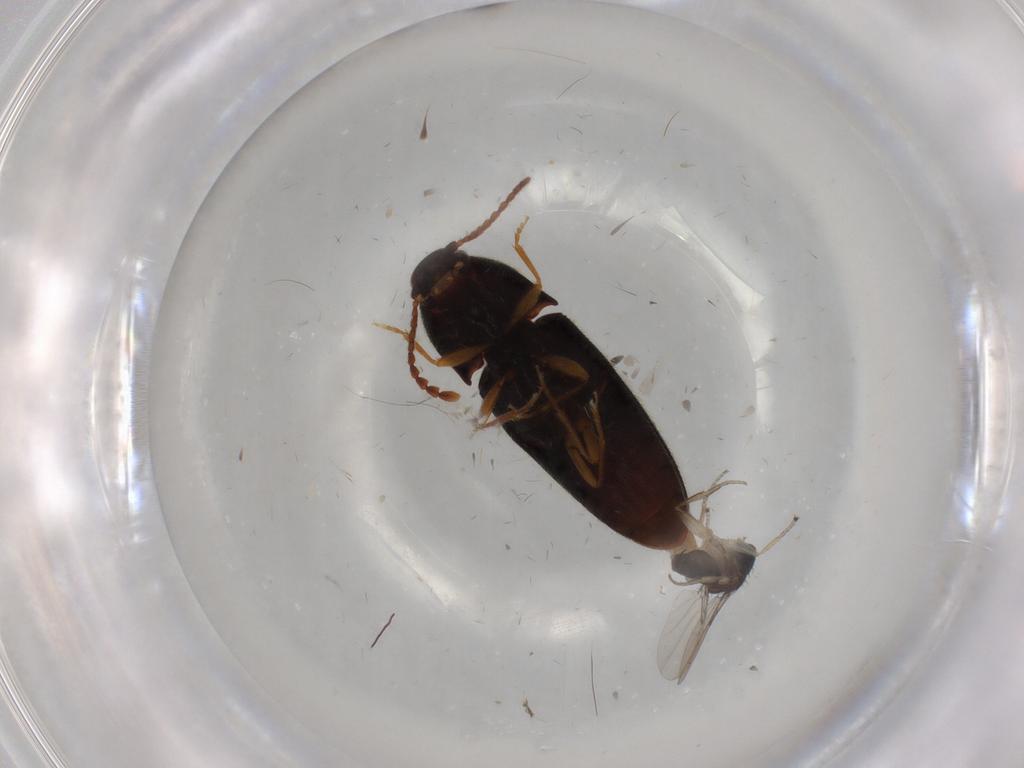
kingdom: Animalia
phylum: Arthropoda
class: Insecta
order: Diptera
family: Phoridae
